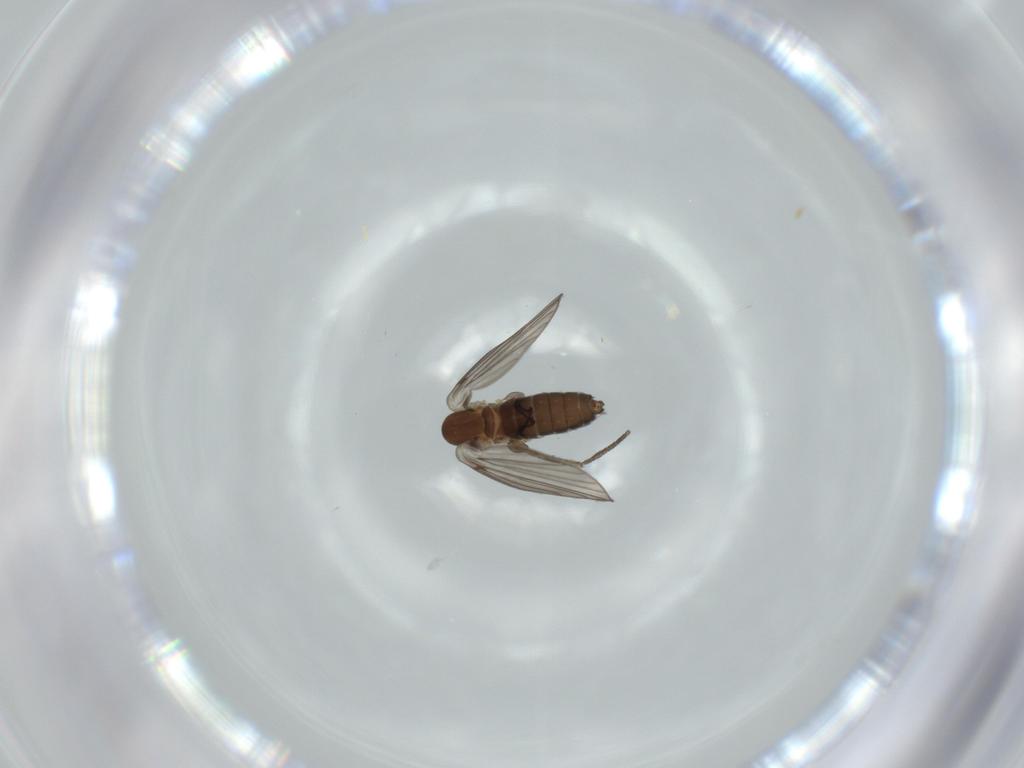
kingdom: Animalia
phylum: Arthropoda
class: Insecta
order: Diptera
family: Psychodidae
